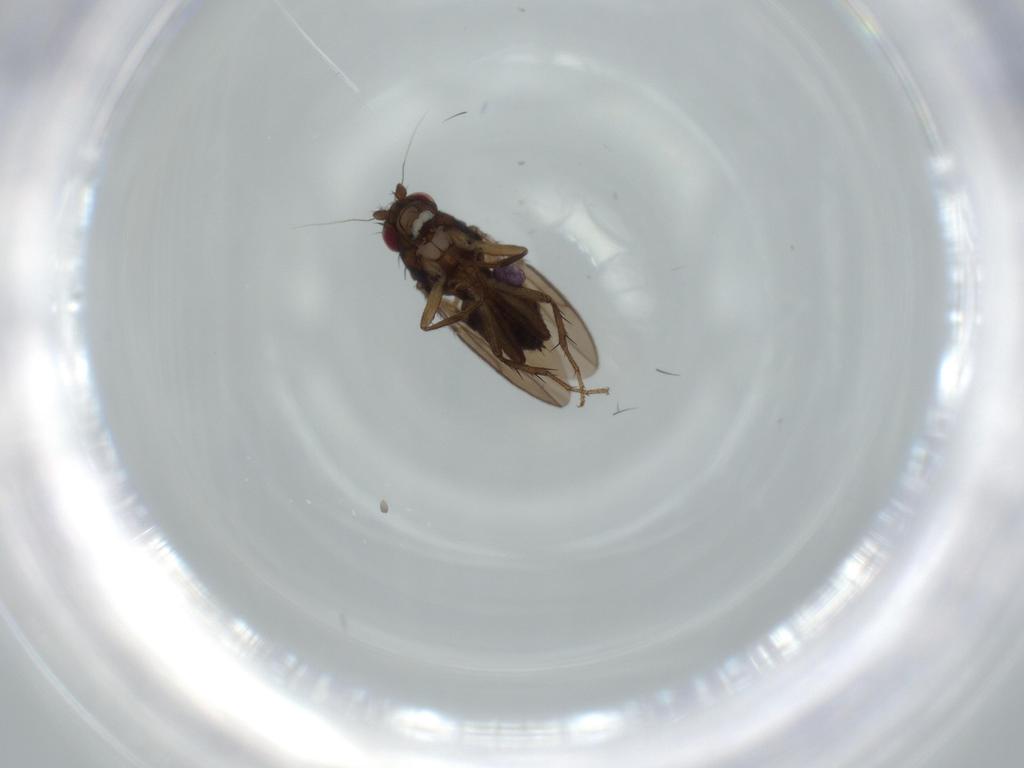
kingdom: Animalia
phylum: Arthropoda
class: Insecta
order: Diptera
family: Sphaeroceridae
